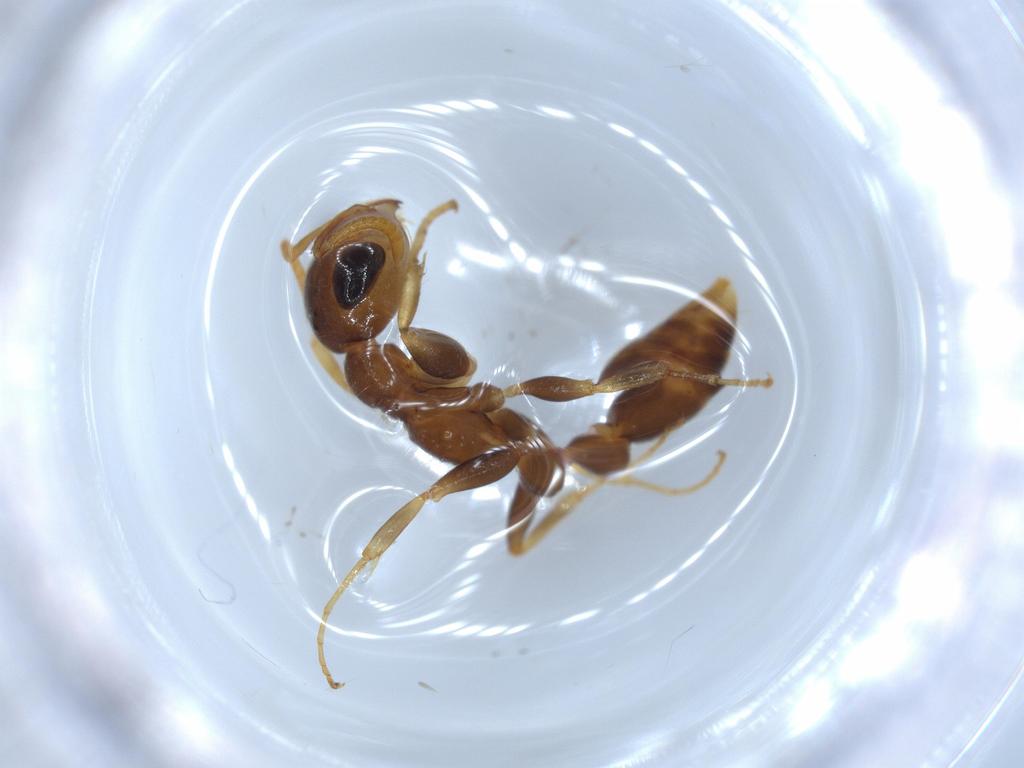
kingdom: Animalia
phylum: Arthropoda
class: Insecta
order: Hymenoptera
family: Formicidae
